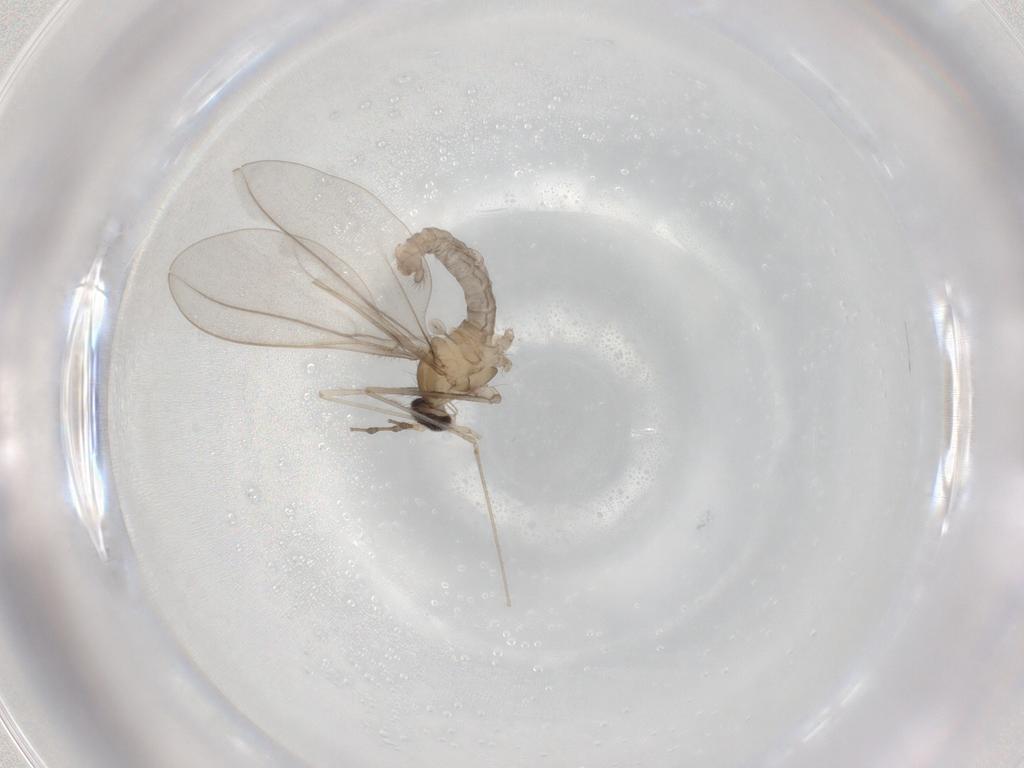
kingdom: Animalia
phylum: Arthropoda
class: Insecta
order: Diptera
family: Cecidomyiidae
